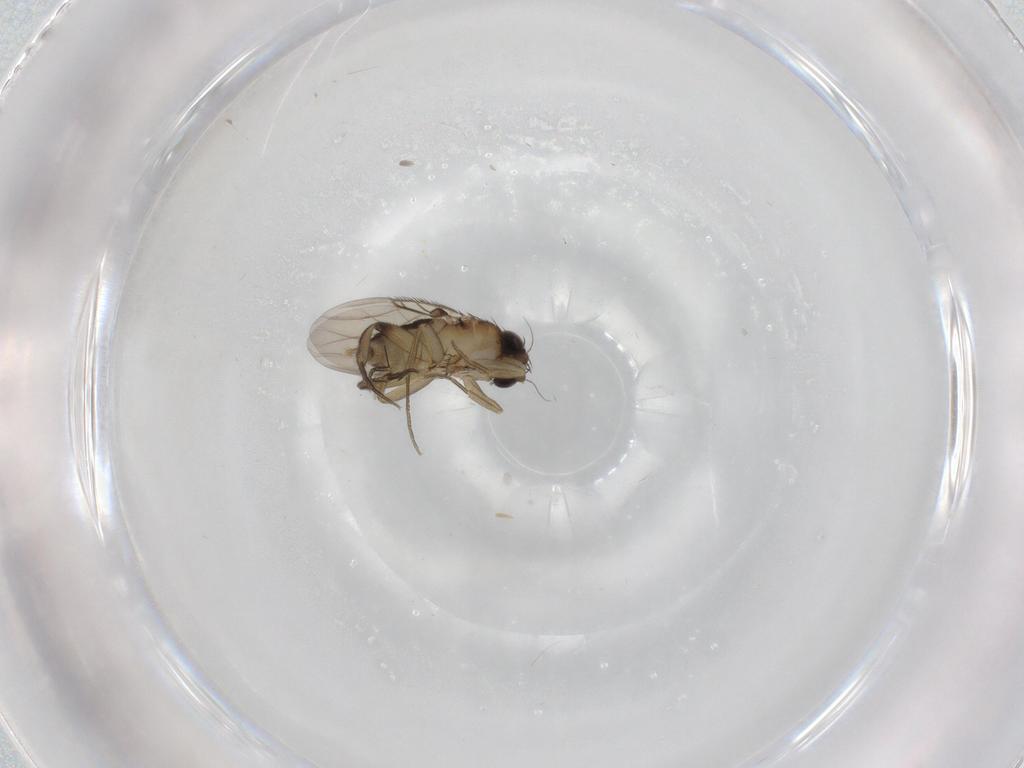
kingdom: Animalia
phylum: Arthropoda
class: Insecta
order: Diptera
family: Phoridae
